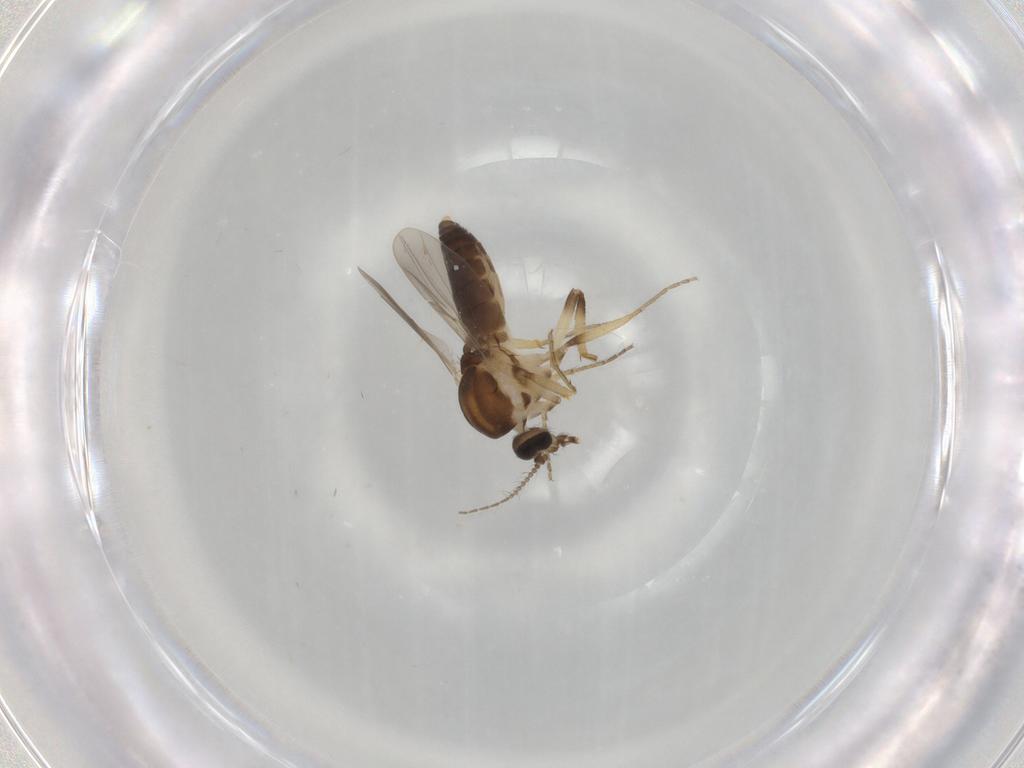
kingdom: Animalia
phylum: Arthropoda
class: Insecta
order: Diptera
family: Ceratopogonidae
